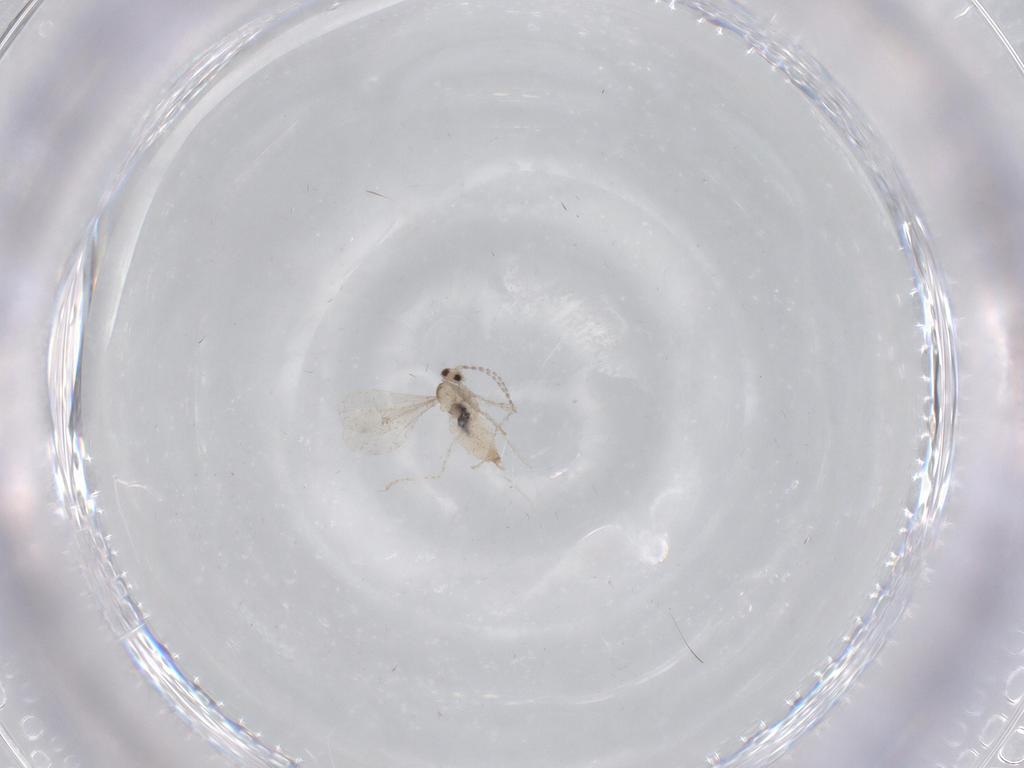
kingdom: Animalia
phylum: Arthropoda
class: Insecta
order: Diptera
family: Cecidomyiidae
